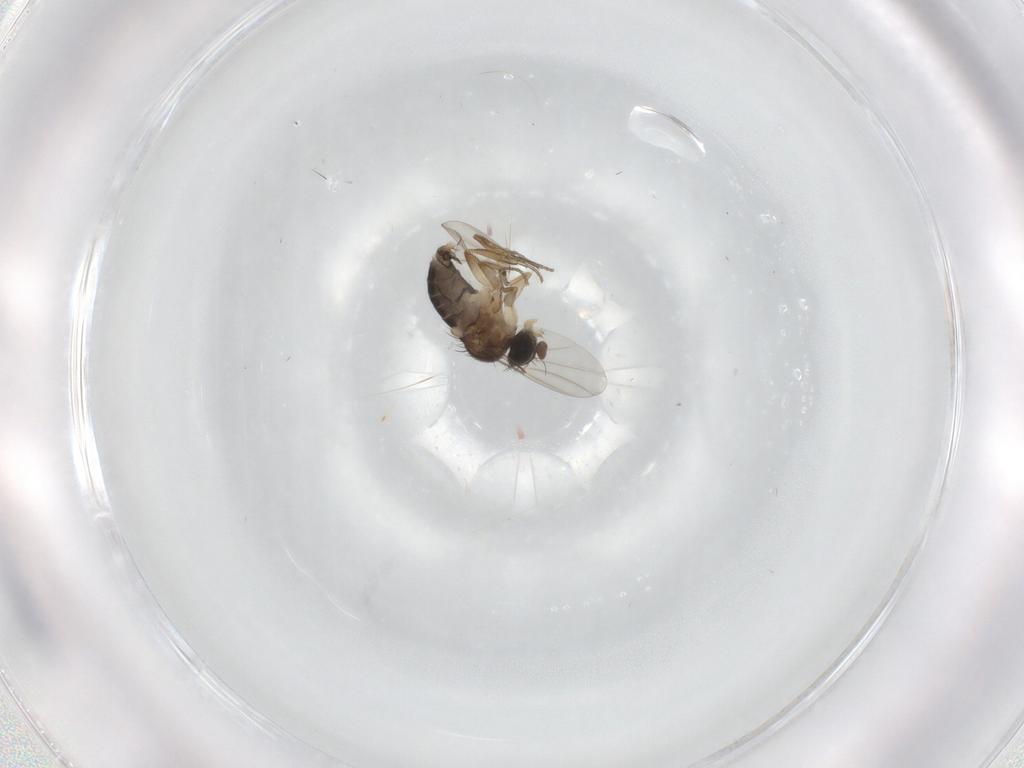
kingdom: Animalia
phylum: Arthropoda
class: Insecta
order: Diptera
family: Phoridae
